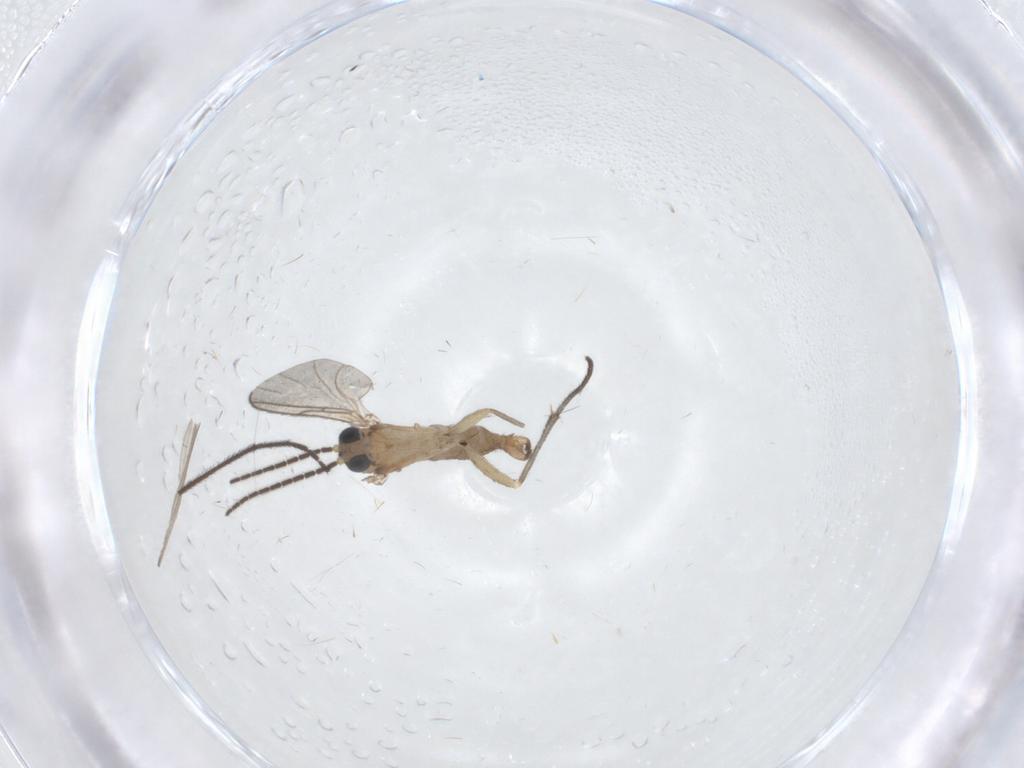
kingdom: Animalia
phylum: Arthropoda
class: Insecta
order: Diptera
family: Sciaridae
